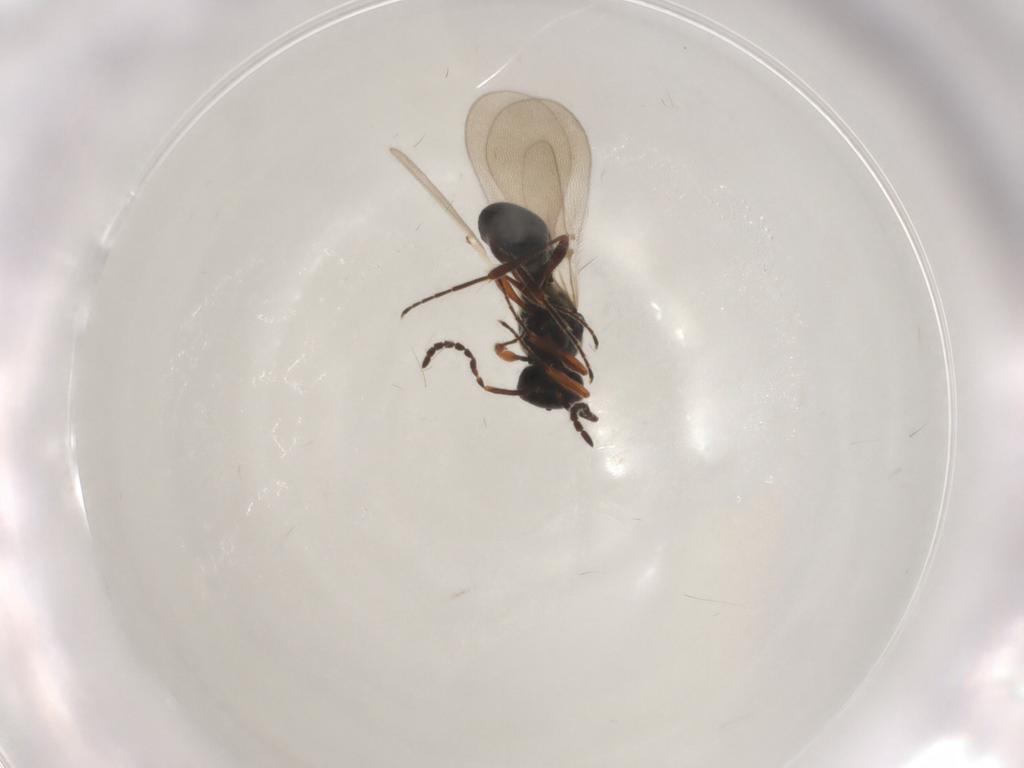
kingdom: Animalia
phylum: Arthropoda
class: Insecta
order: Hymenoptera
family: Platygastridae
